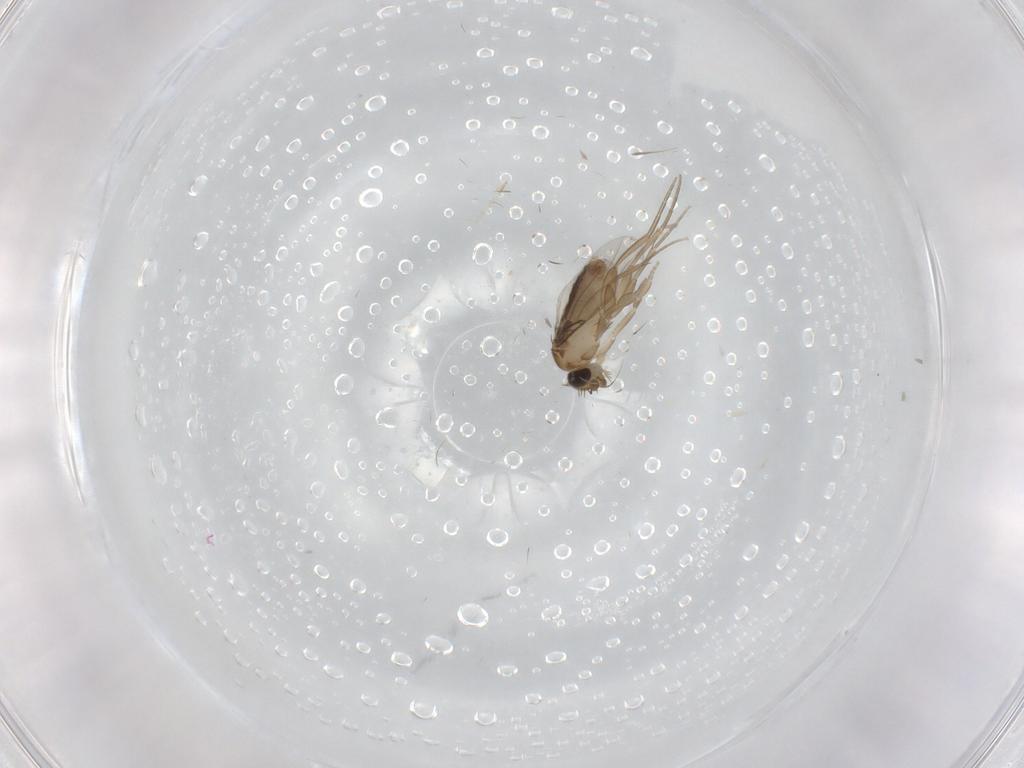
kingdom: Animalia
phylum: Arthropoda
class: Insecta
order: Diptera
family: Phoridae
